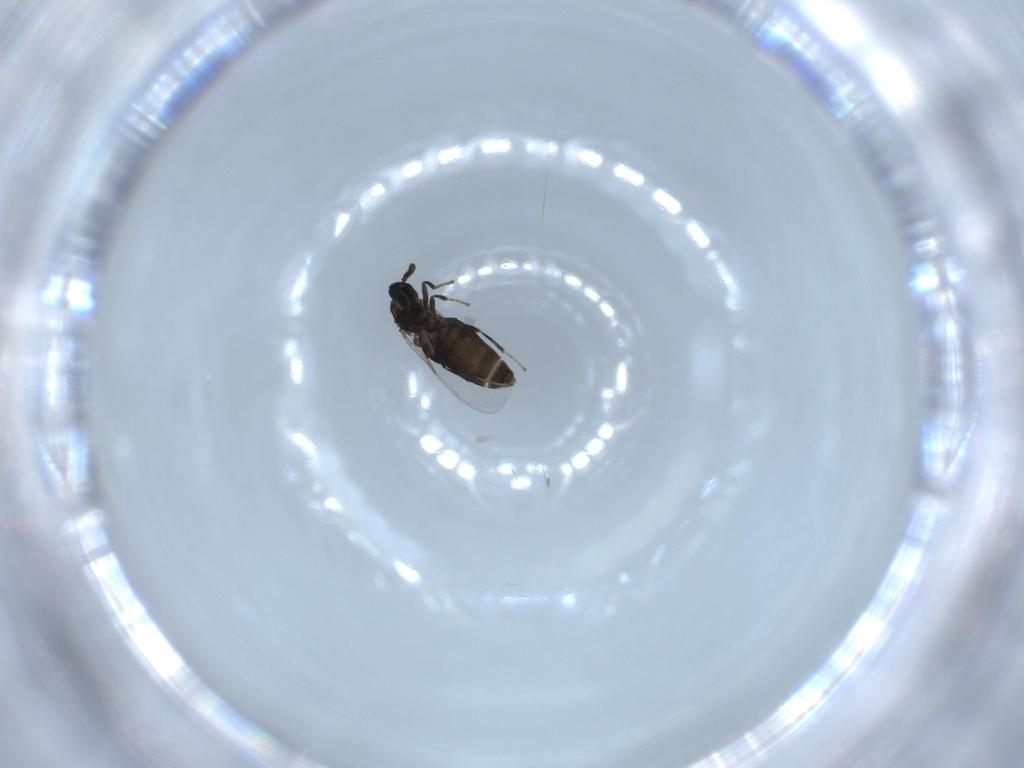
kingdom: Animalia
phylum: Arthropoda
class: Insecta
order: Diptera
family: Scatopsidae
